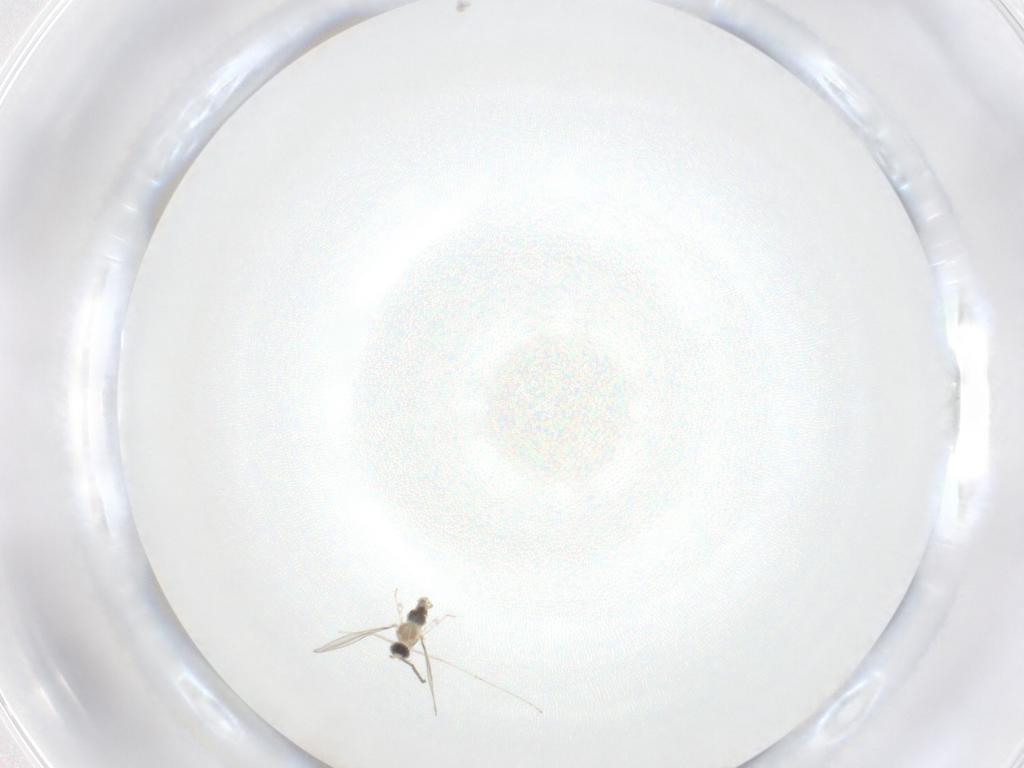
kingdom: Animalia
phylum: Arthropoda
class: Insecta
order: Diptera
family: Cecidomyiidae
